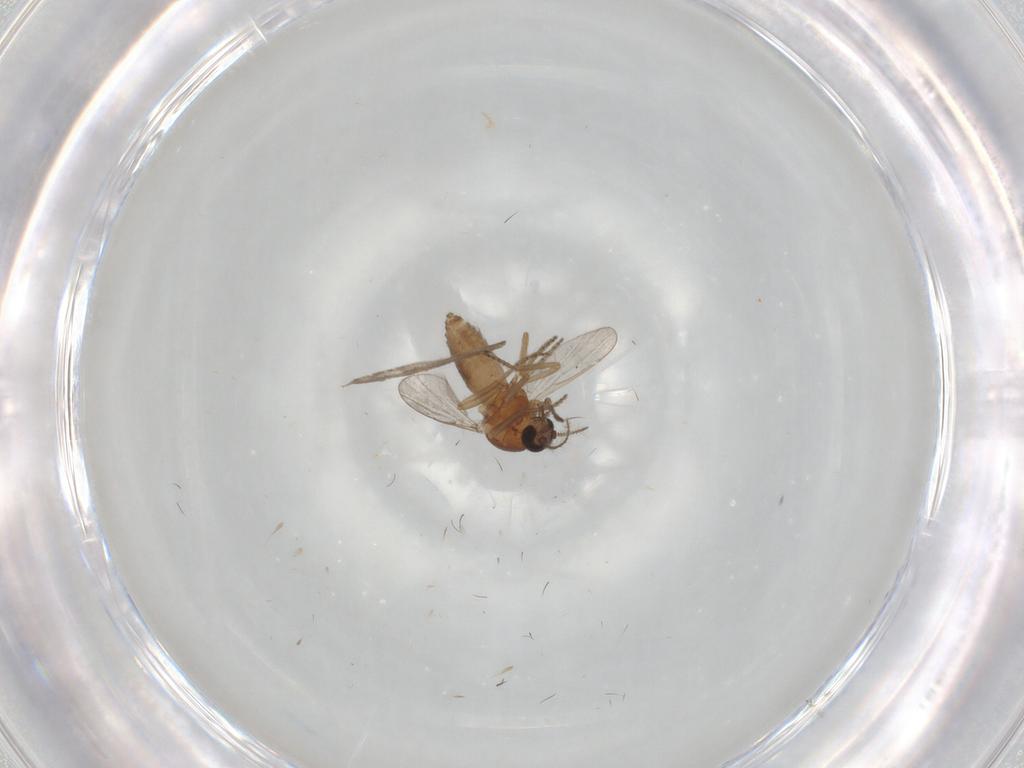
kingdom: Animalia
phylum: Arthropoda
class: Insecta
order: Diptera
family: Ceratopogonidae
